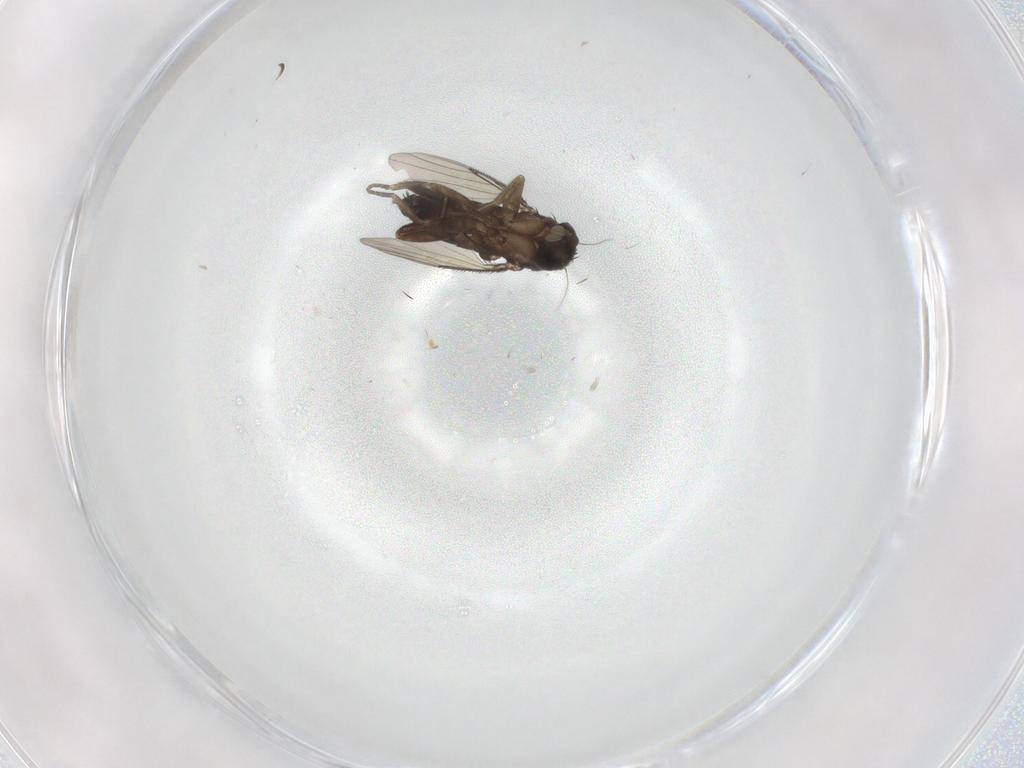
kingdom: Animalia
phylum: Arthropoda
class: Insecta
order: Diptera
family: Phoridae
